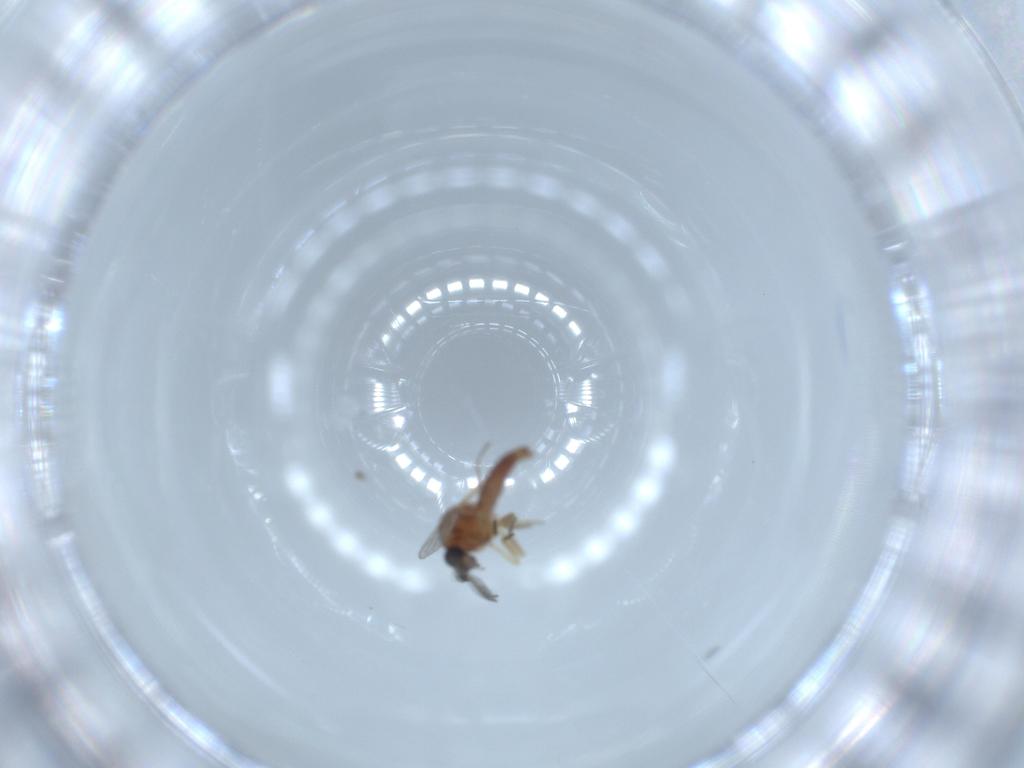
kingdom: Animalia
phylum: Arthropoda
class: Insecta
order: Diptera
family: Ceratopogonidae
